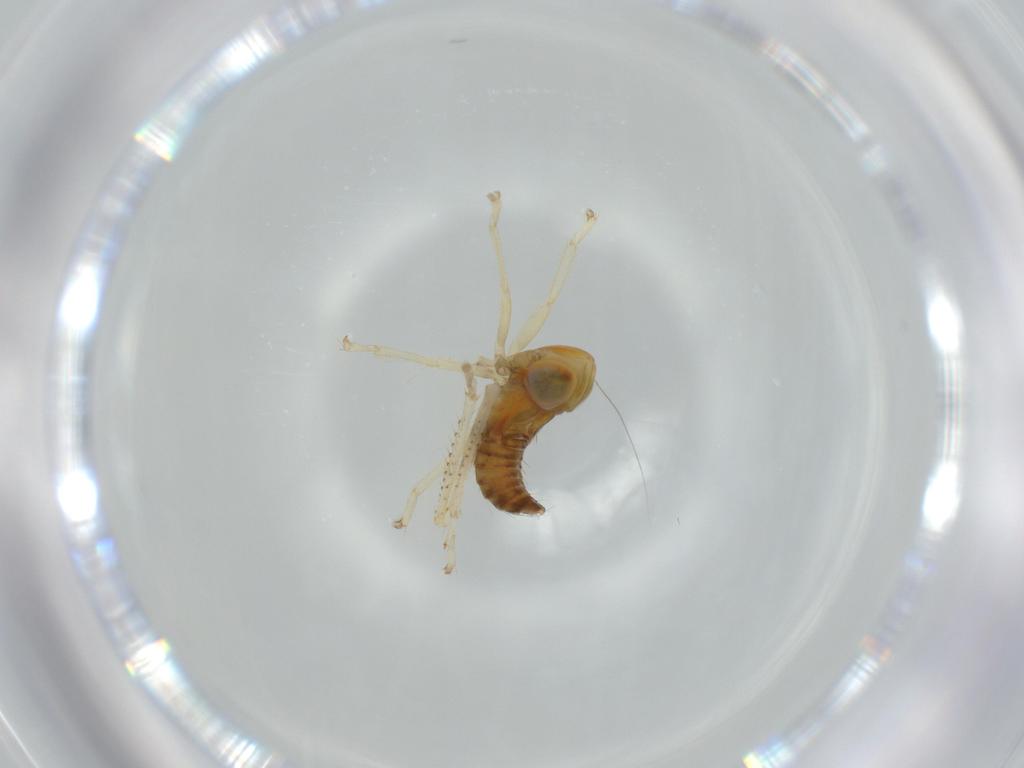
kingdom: Animalia
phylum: Arthropoda
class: Insecta
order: Hemiptera
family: Cicadellidae
